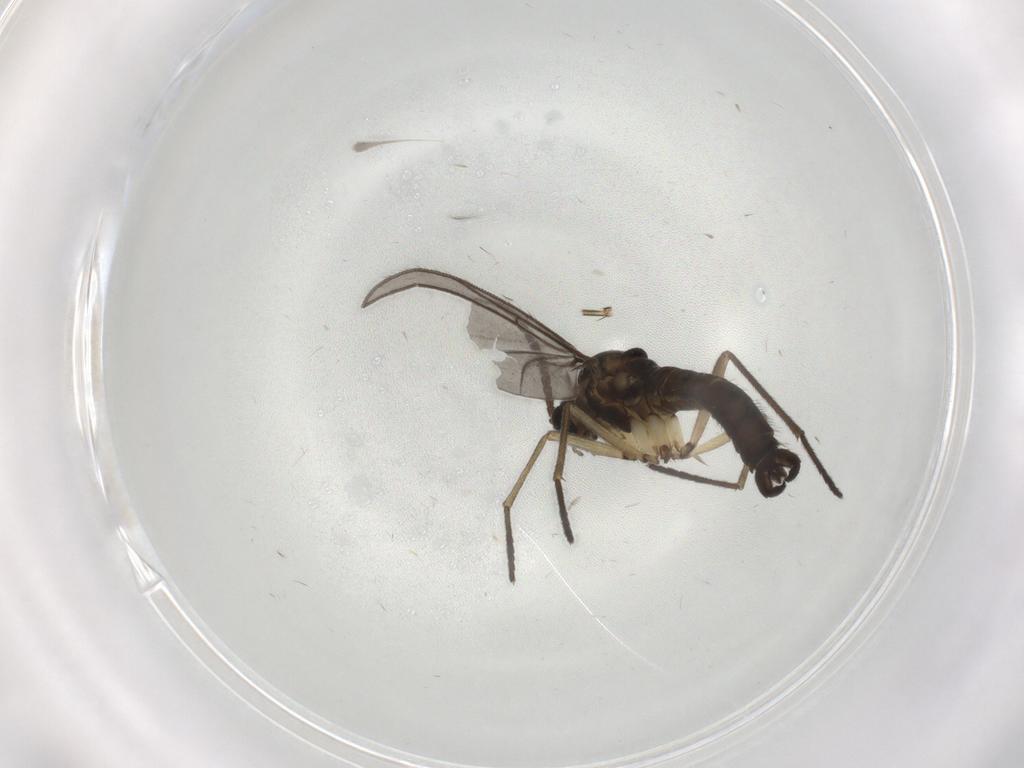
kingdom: Animalia
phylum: Arthropoda
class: Insecta
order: Diptera
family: Sciaridae
